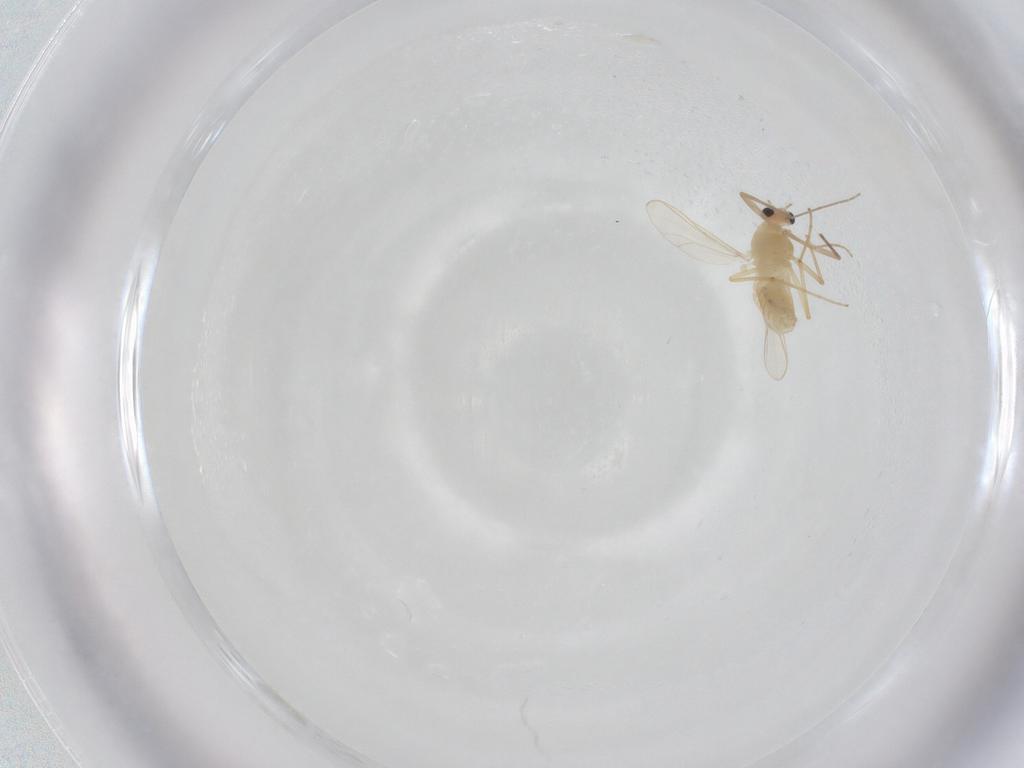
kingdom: Animalia
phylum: Arthropoda
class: Insecta
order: Diptera
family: Chironomidae
